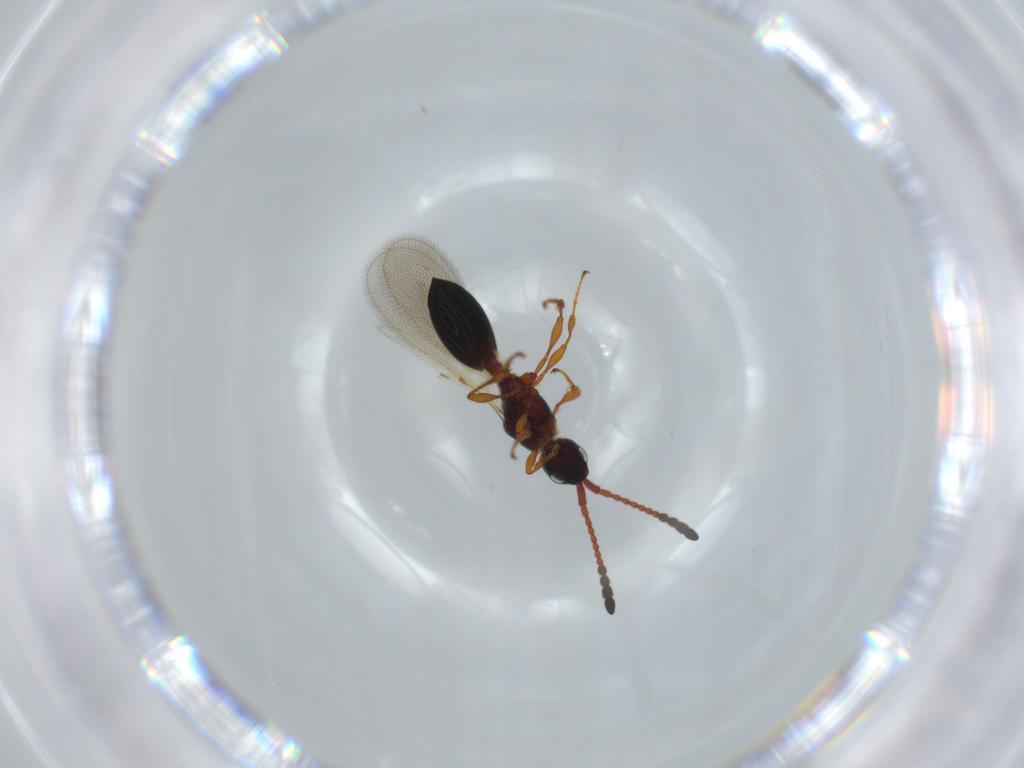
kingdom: Animalia
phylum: Arthropoda
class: Insecta
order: Hymenoptera
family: Diapriidae
